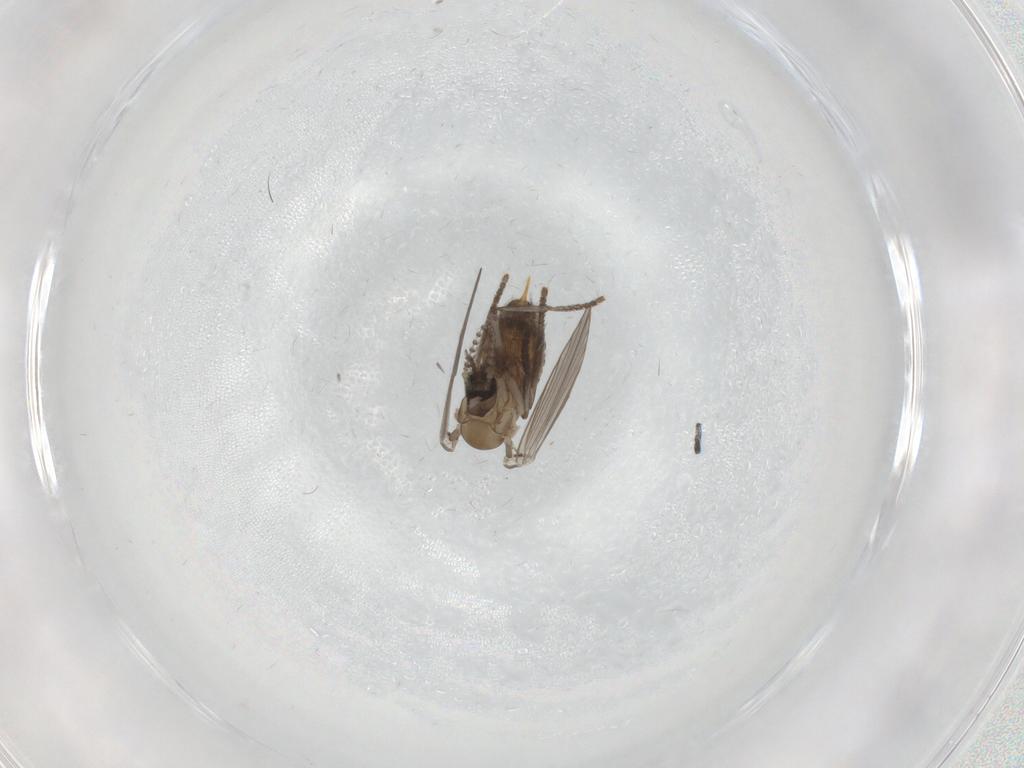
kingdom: Animalia
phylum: Arthropoda
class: Insecta
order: Diptera
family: Psychodidae
